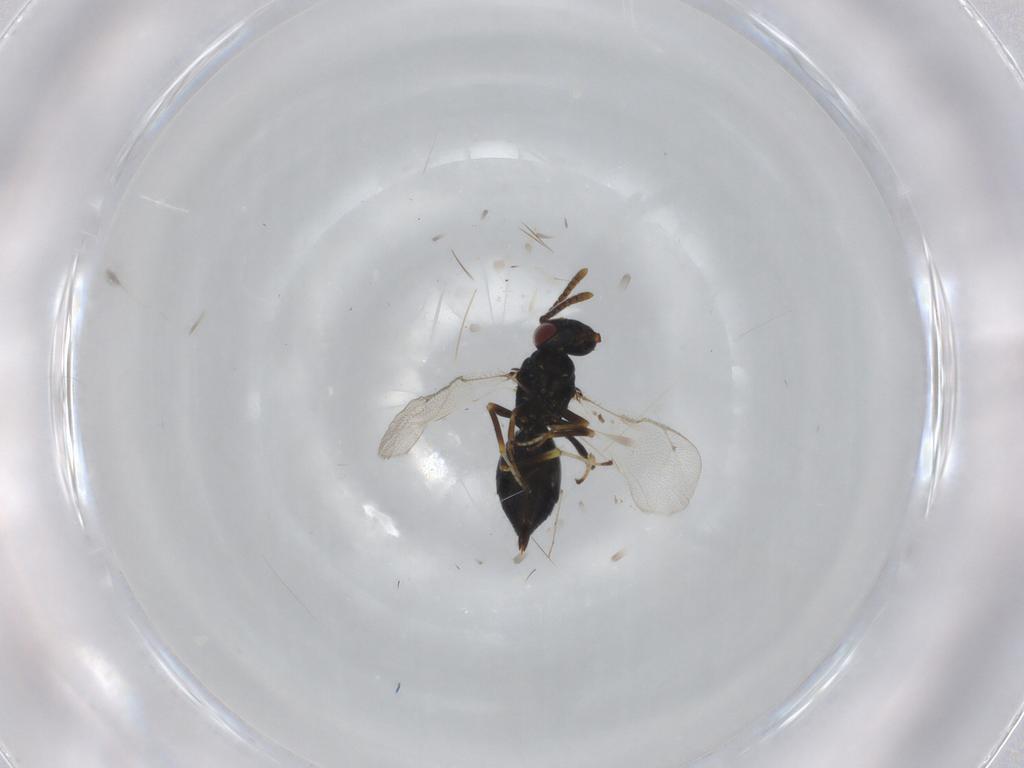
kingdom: Animalia
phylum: Arthropoda
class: Insecta
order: Hymenoptera
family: Pteromalidae
